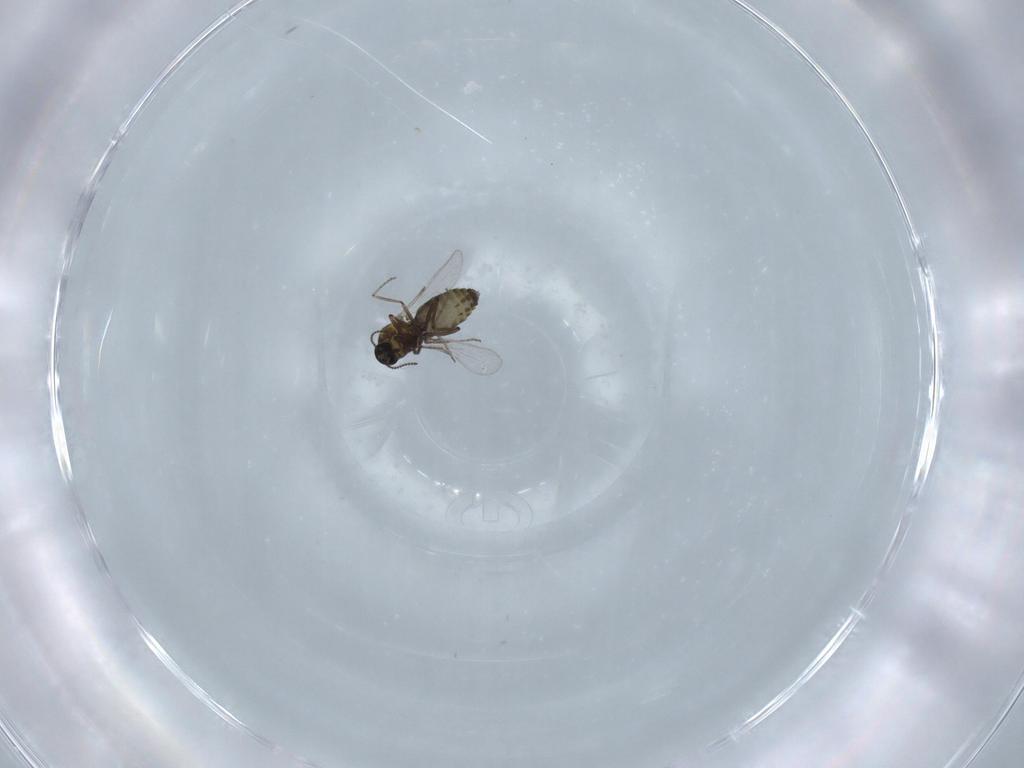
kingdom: Animalia
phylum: Arthropoda
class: Insecta
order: Diptera
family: Ceratopogonidae
